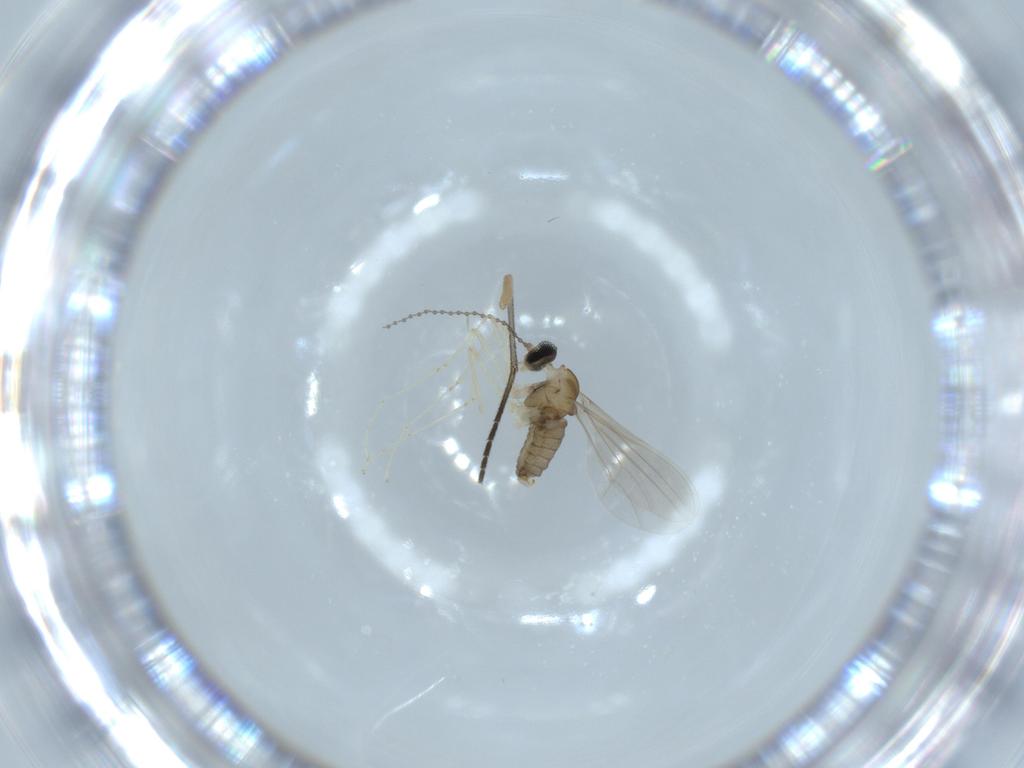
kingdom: Animalia
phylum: Arthropoda
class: Insecta
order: Diptera
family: Cecidomyiidae
